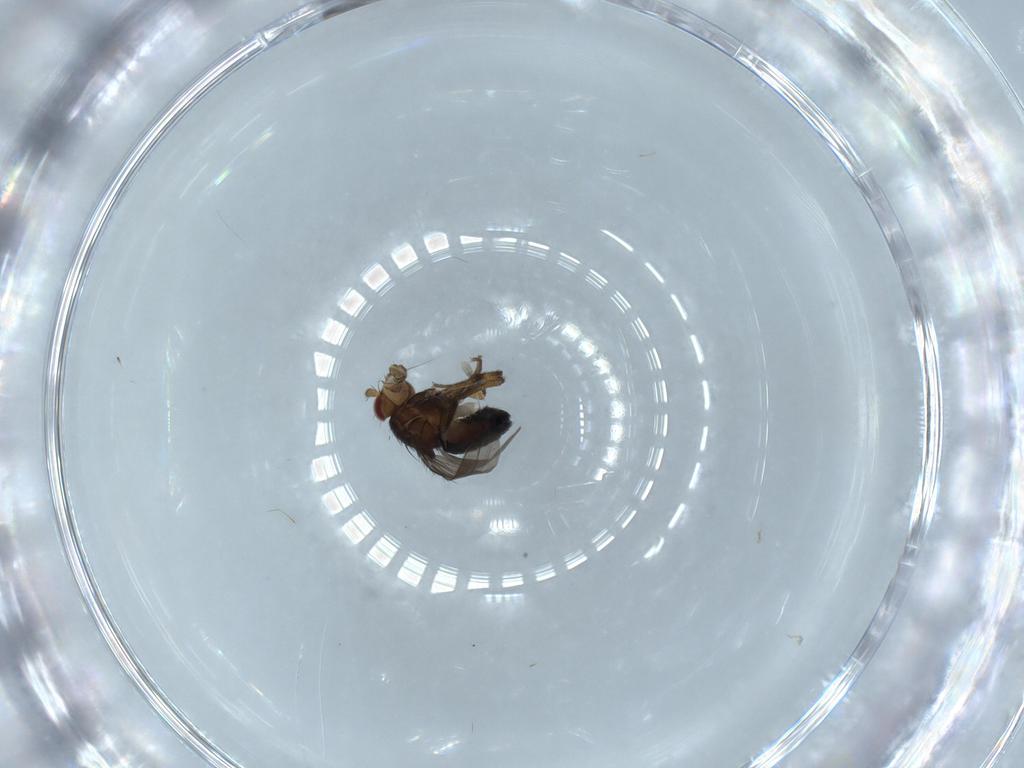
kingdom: Animalia
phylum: Arthropoda
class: Insecta
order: Diptera
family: Sphaeroceridae
